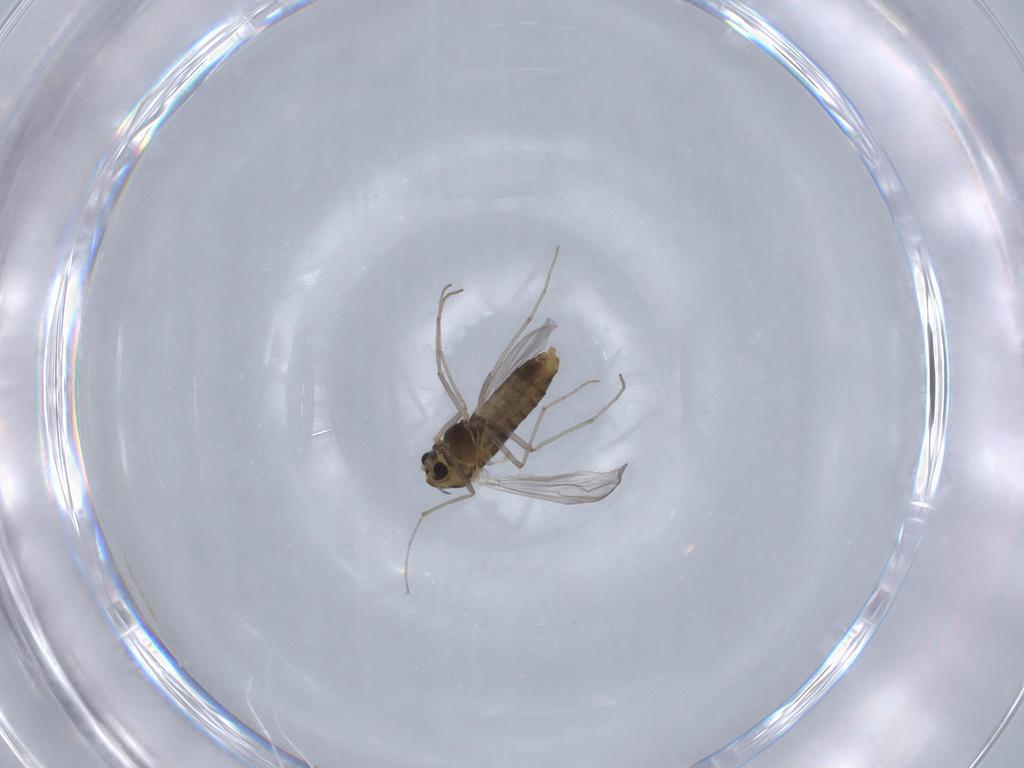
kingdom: Animalia
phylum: Arthropoda
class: Insecta
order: Diptera
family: Chironomidae
